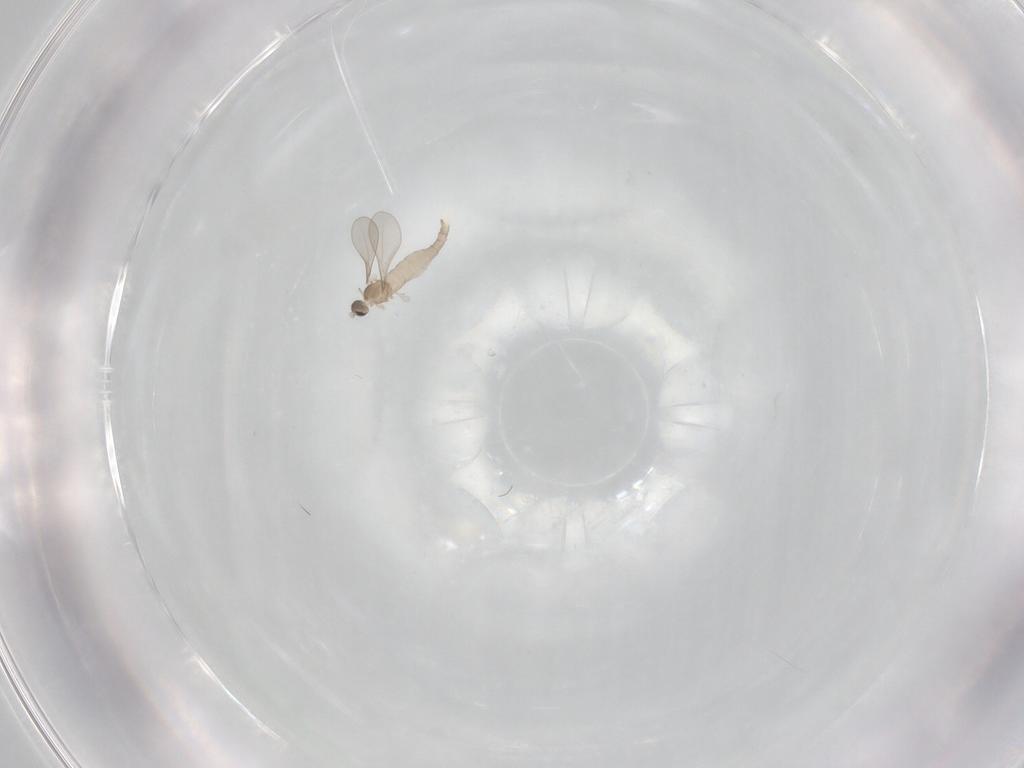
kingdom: Animalia
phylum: Arthropoda
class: Insecta
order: Diptera
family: Cecidomyiidae
